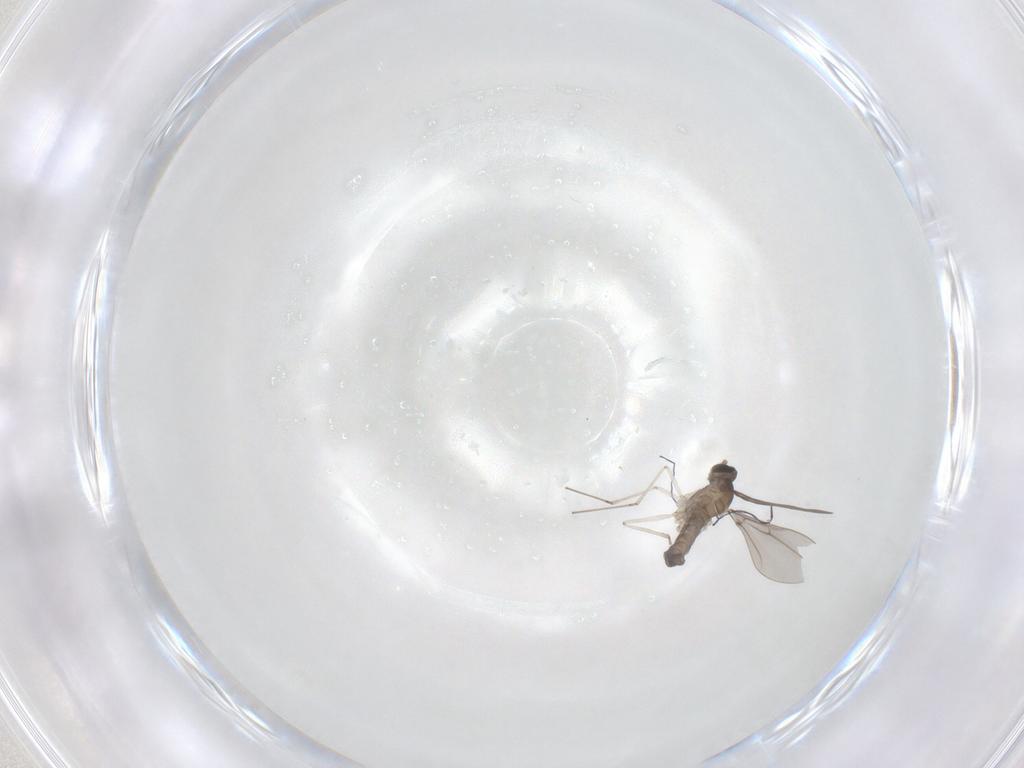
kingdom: Animalia
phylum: Arthropoda
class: Insecta
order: Diptera
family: Cecidomyiidae
